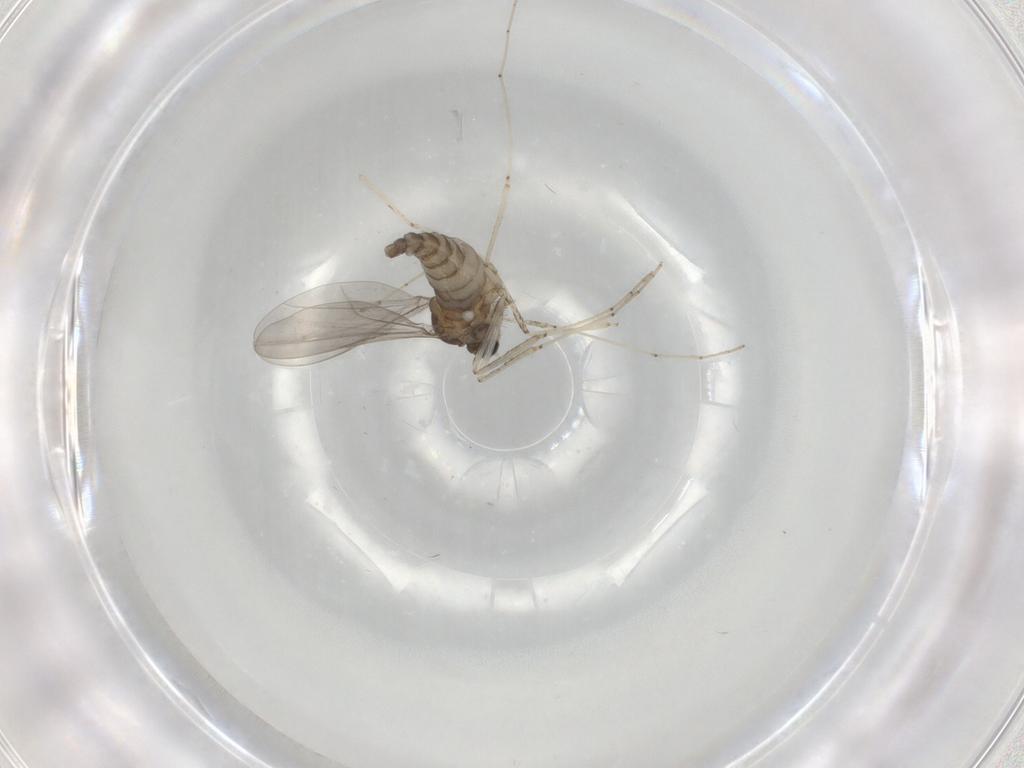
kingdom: Animalia
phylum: Arthropoda
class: Insecta
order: Diptera
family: Cecidomyiidae
